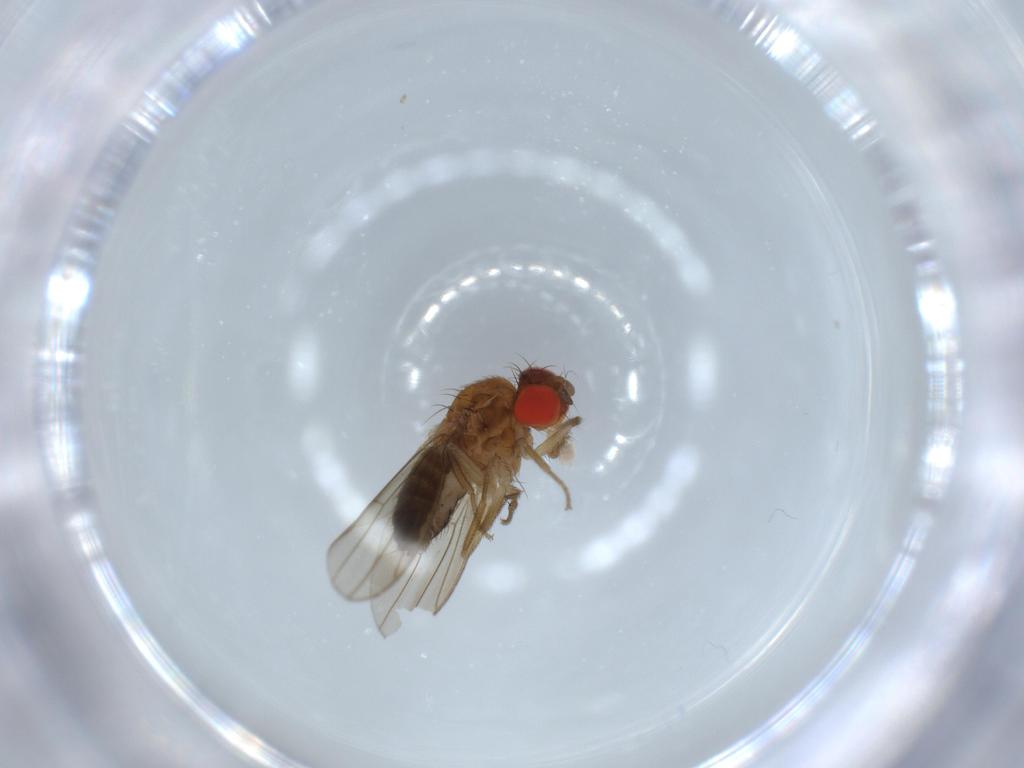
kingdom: Animalia
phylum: Arthropoda
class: Insecta
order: Diptera
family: Drosophilidae
